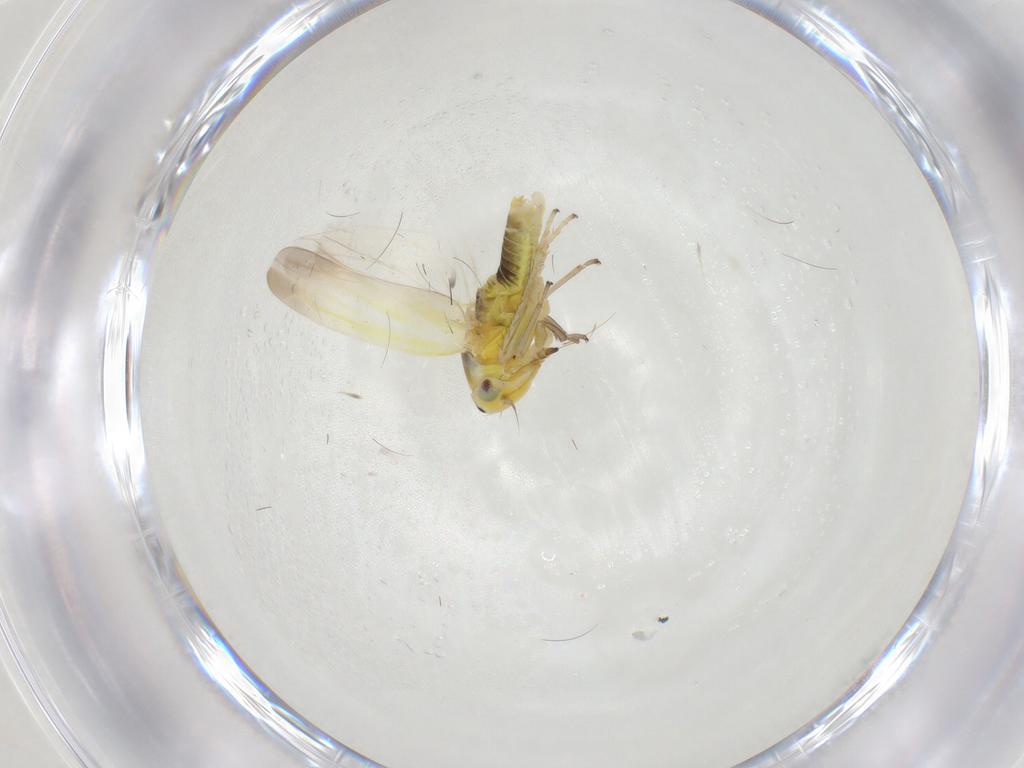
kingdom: Animalia
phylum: Arthropoda
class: Insecta
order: Hemiptera
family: Cicadellidae
